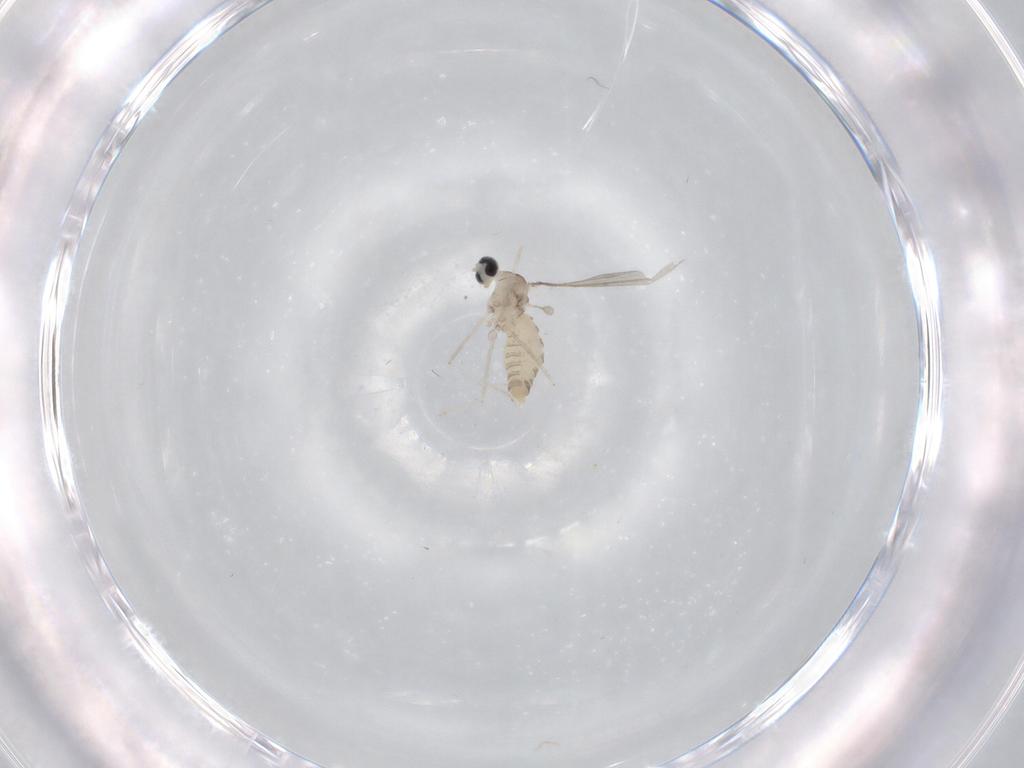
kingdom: Animalia
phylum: Arthropoda
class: Insecta
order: Diptera
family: Cecidomyiidae
